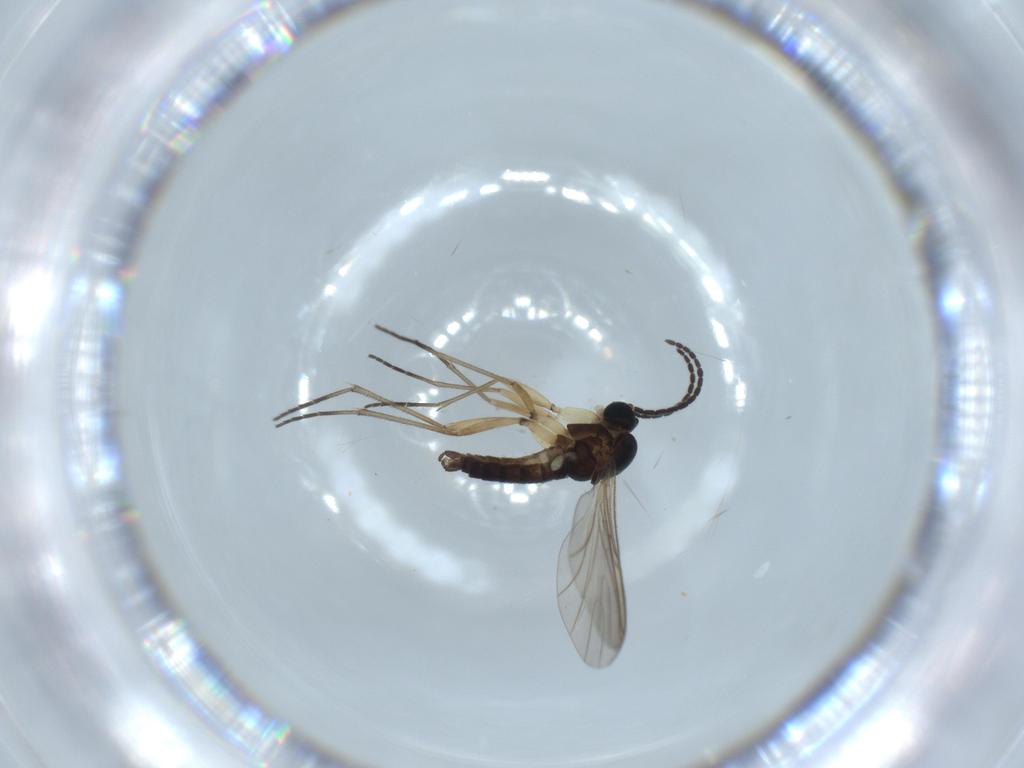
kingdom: Animalia
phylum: Arthropoda
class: Insecta
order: Diptera
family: Sciaridae
